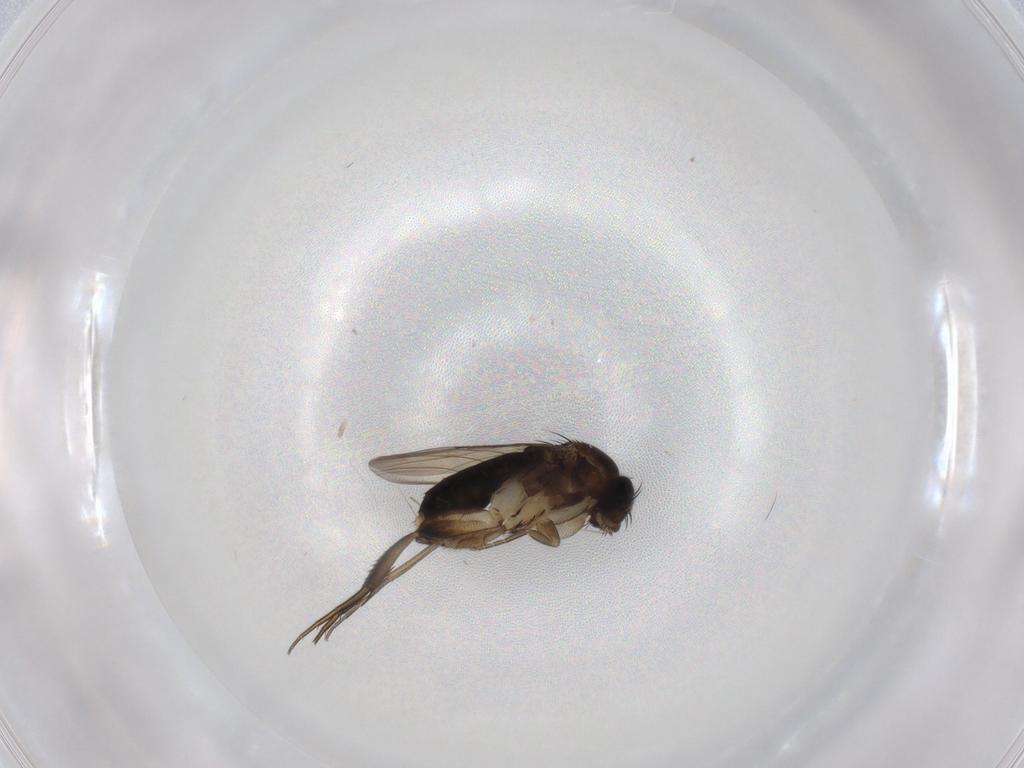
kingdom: Animalia
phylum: Arthropoda
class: Insecta
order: Diptera
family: Phoridae
